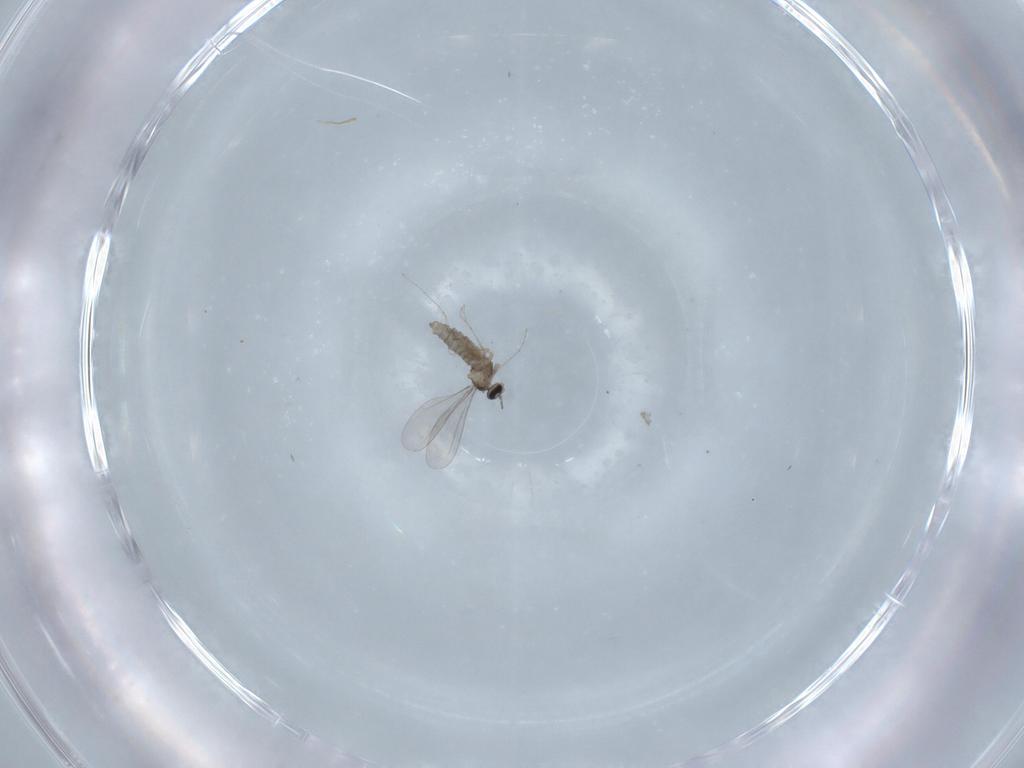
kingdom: Animalia
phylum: Arthropoda
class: Insecta
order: Diptera
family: Cecidomyiidae
